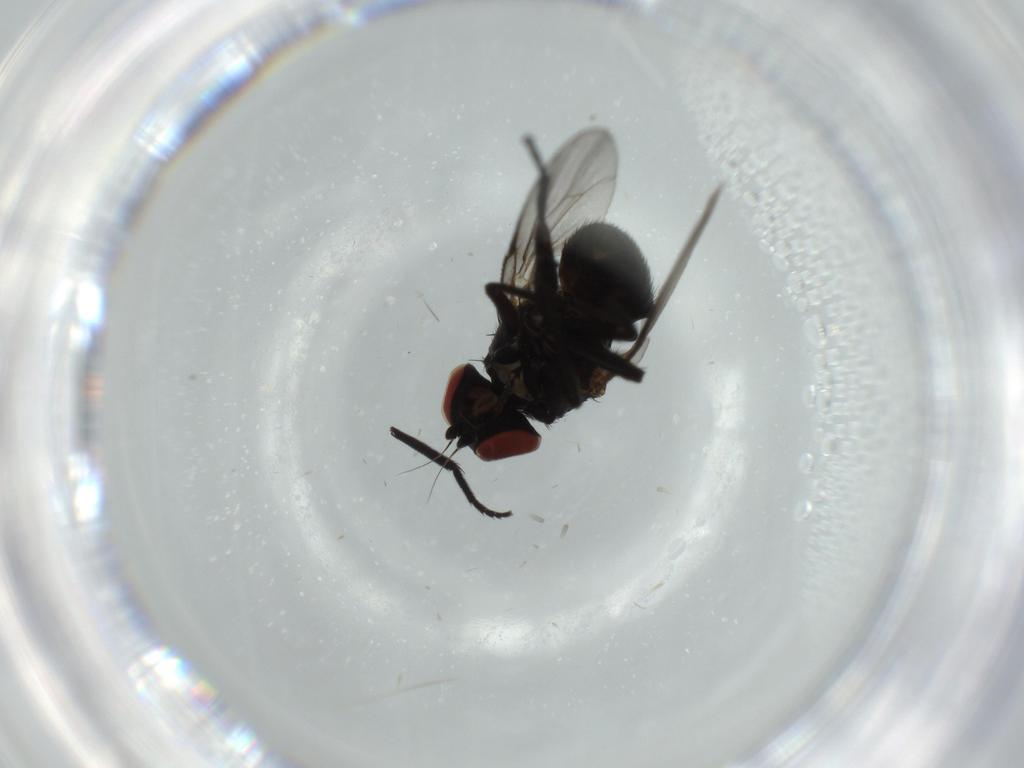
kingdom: Animalia
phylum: Arthropoda
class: Insecta
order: Diptera
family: Agromyzidae
